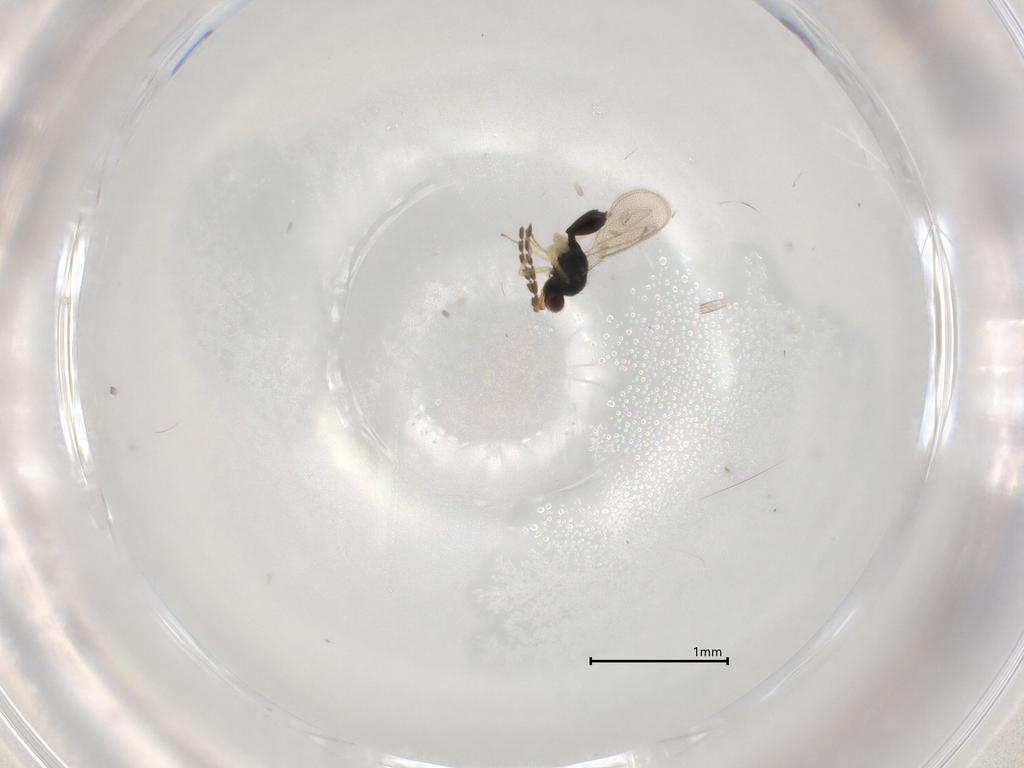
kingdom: Animalia
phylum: Arthropoda
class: Insecta
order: Hymenoptera
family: Eulophidae
